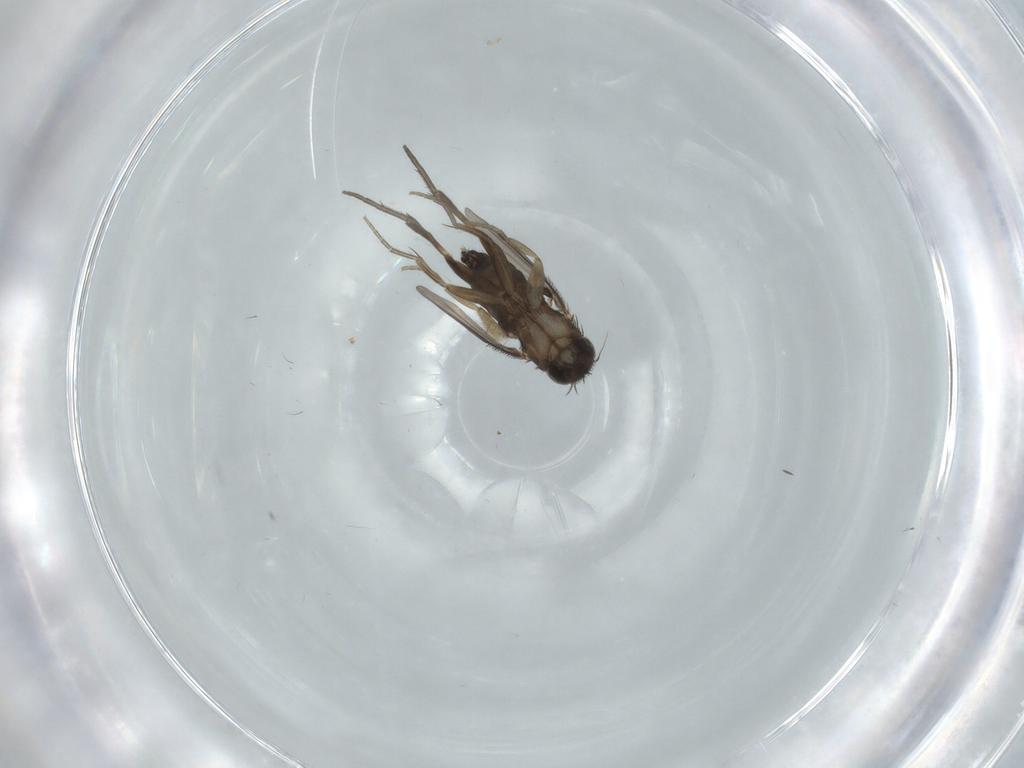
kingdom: Animalia
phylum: Arthropoda
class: Insecta
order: Diptera
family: Phoridae
